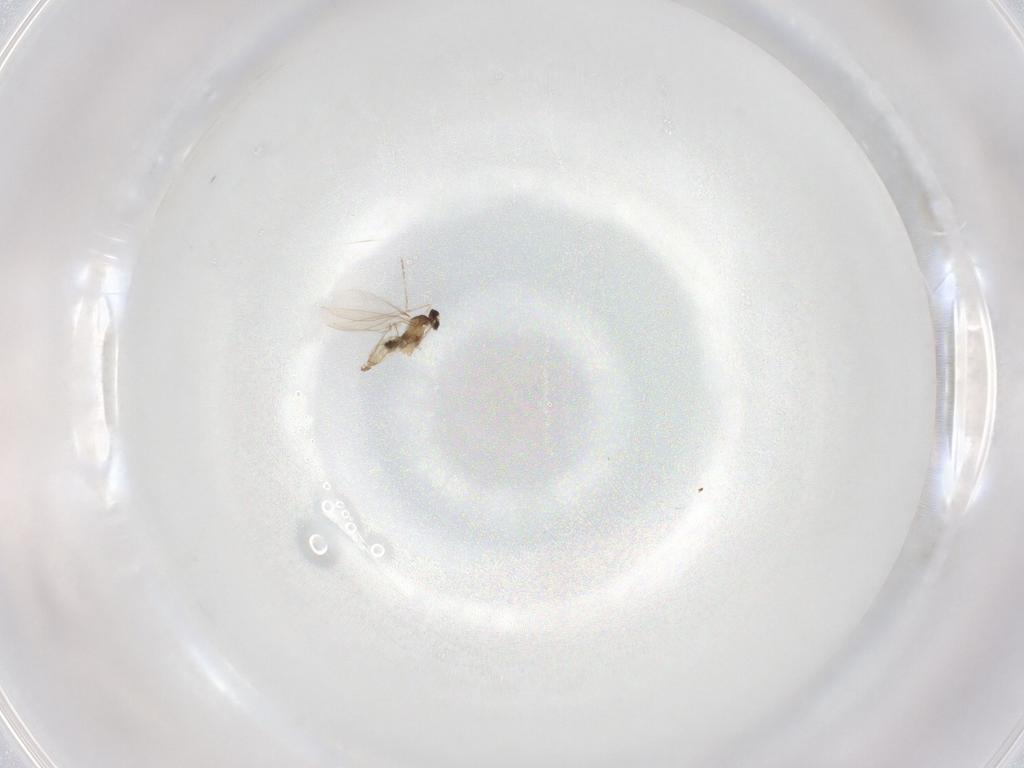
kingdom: Animalia
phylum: Arthropoda
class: Insecta
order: Diptera
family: Cecidomyiidae
